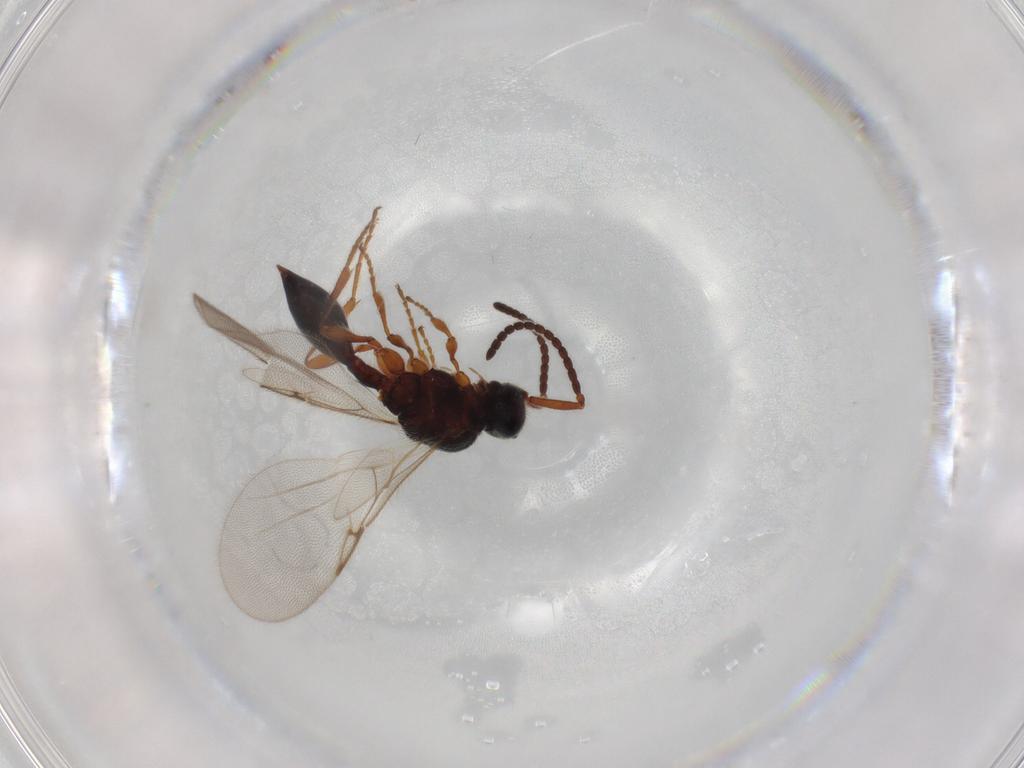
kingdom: Animalia
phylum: Arthropoda
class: Insecta
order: Hymenoptera
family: Diapriidae
